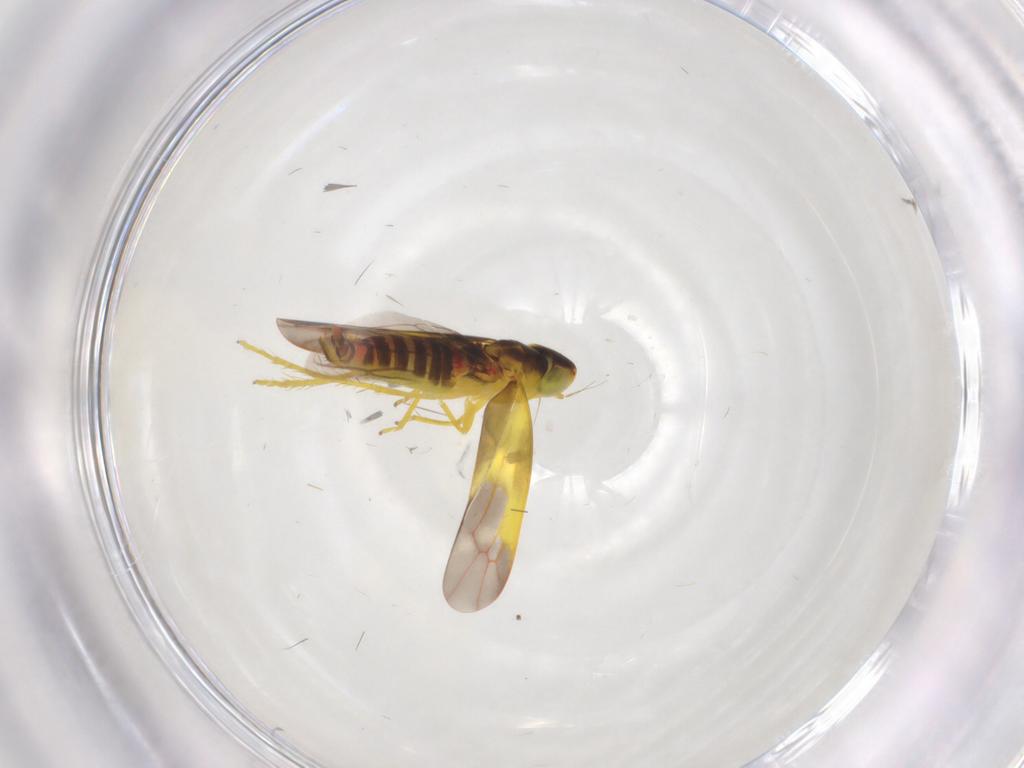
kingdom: Animalia
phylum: Arthropoda
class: Insecta
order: Hemiptera
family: Cicadellidae
